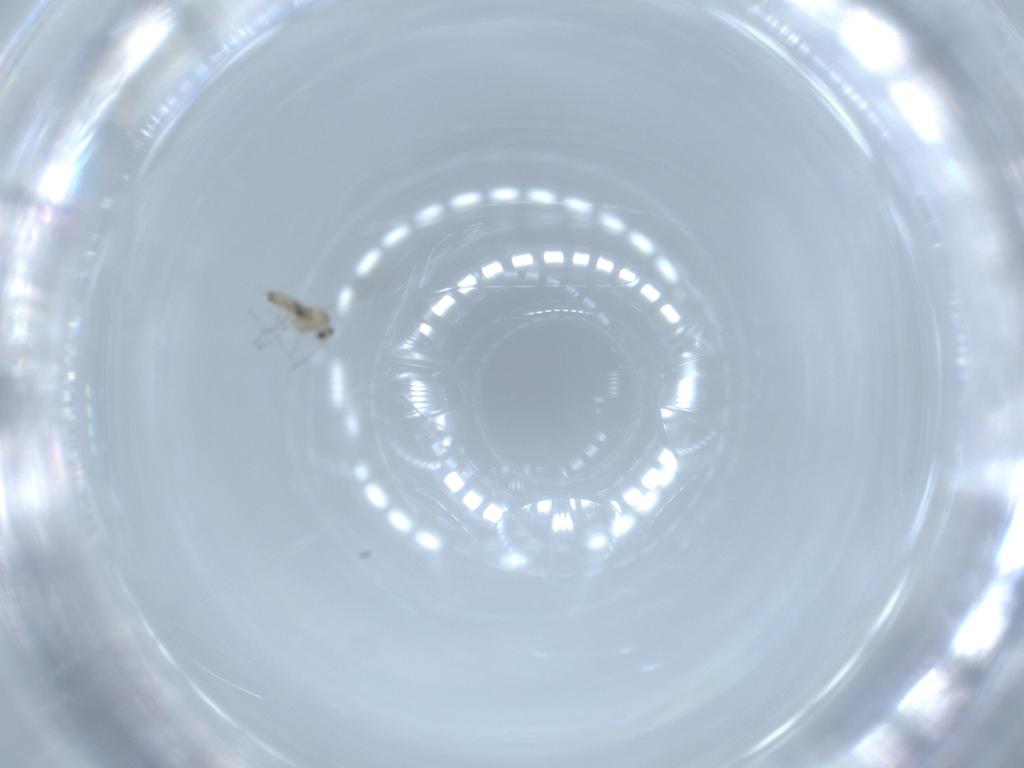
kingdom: Animalia
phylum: Arthropoda
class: Insecta
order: Diptera
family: Cecidomyiidae
